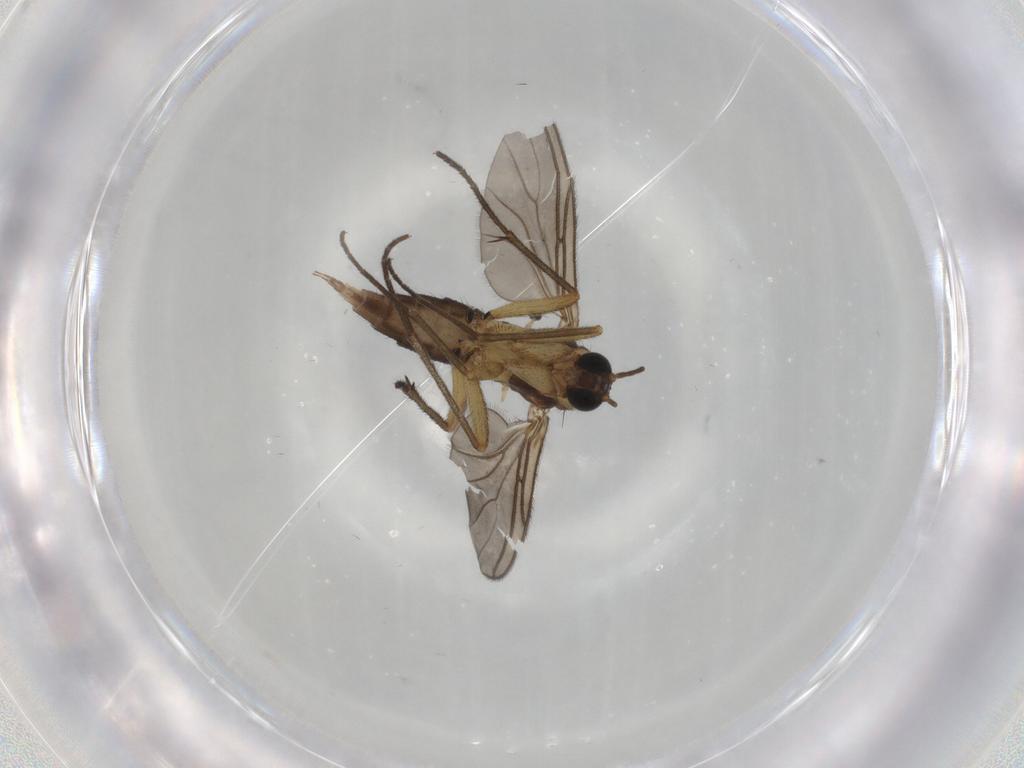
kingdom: Animalia
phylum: Arthropoda
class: Insecta
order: Diptera
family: Sciaridae
